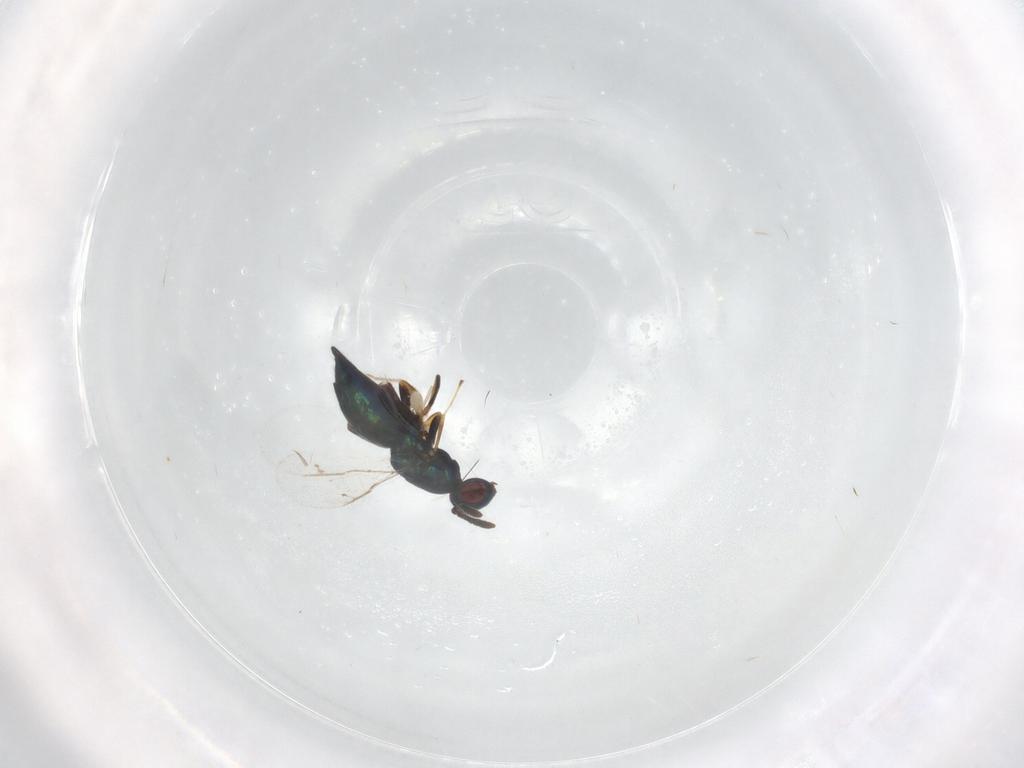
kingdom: Animalia
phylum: Arthropoda
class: Insecta
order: Hymenoptera
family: Pteromalidae
